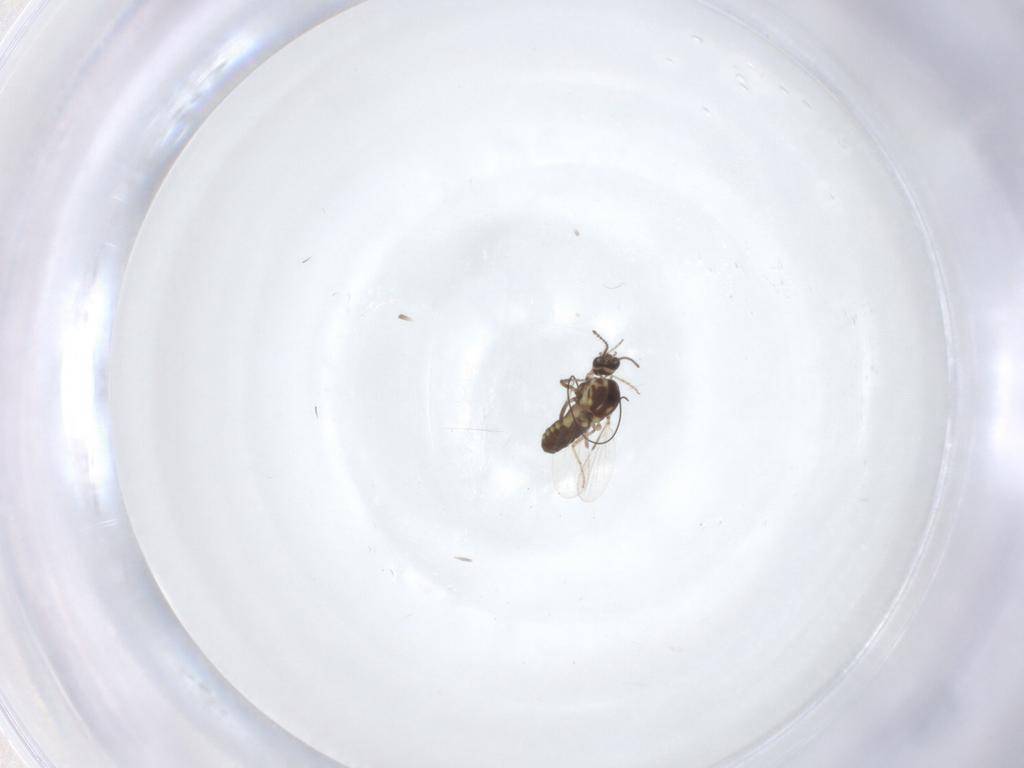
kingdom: Animalia
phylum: Arthropoda
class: Insecta
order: Diptera
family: Ceratopogonidae
